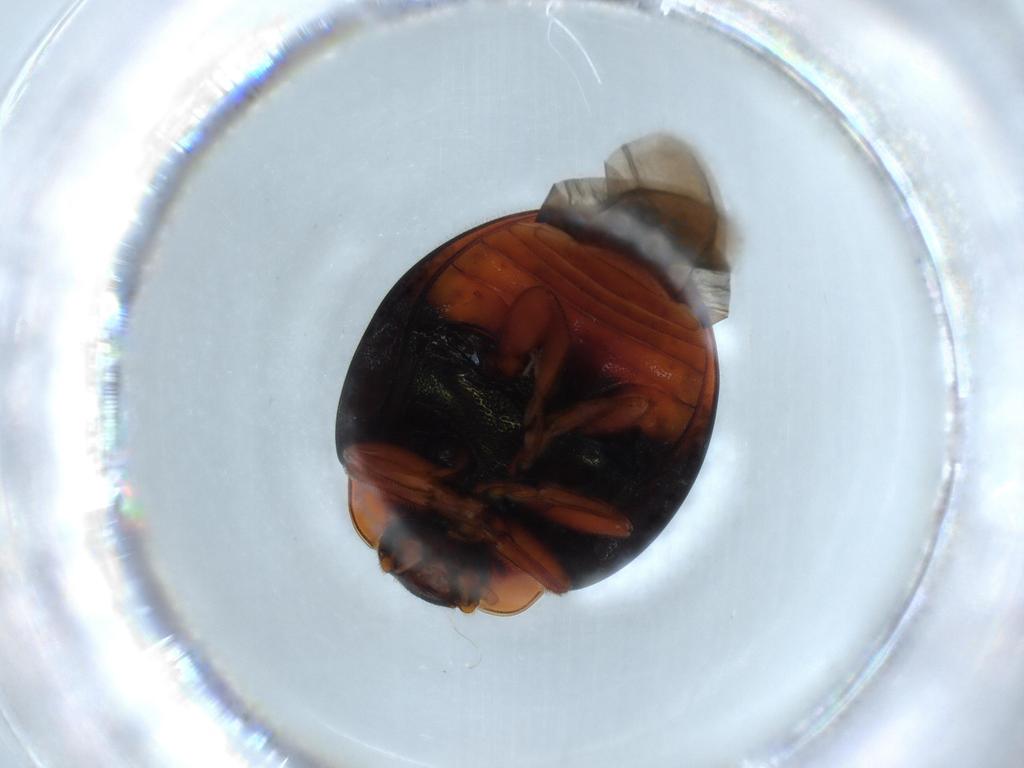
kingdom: Animalia
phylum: Arthropoda
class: Insecta
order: Coleoptera
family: Coccinellidae
